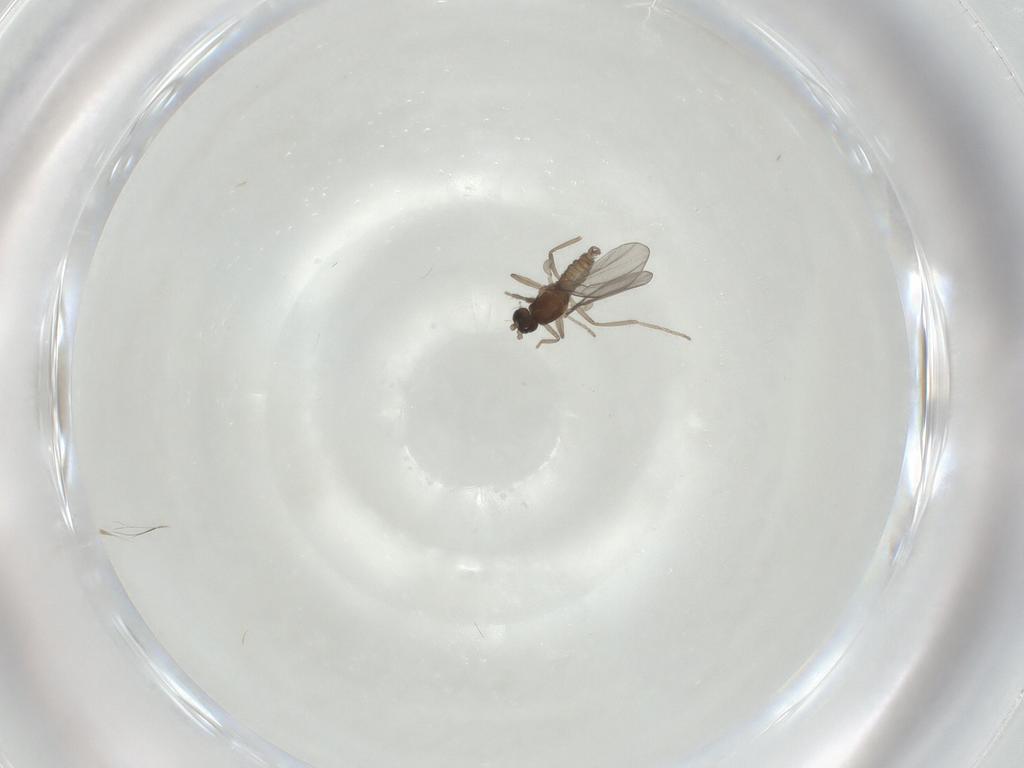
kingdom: Animalia
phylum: Arthropoda
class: Insecta
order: Diptera
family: Cecidomyiidae
